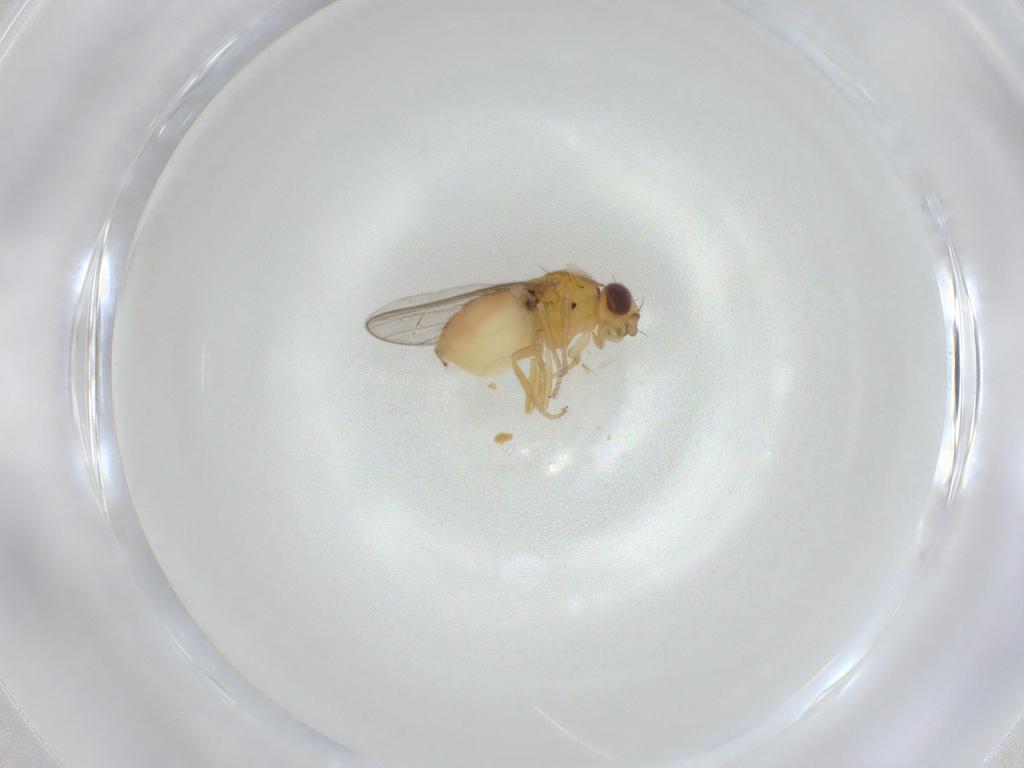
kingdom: Animalia
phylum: Arthropoda
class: Insecta
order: Diptera
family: Chloropidae
